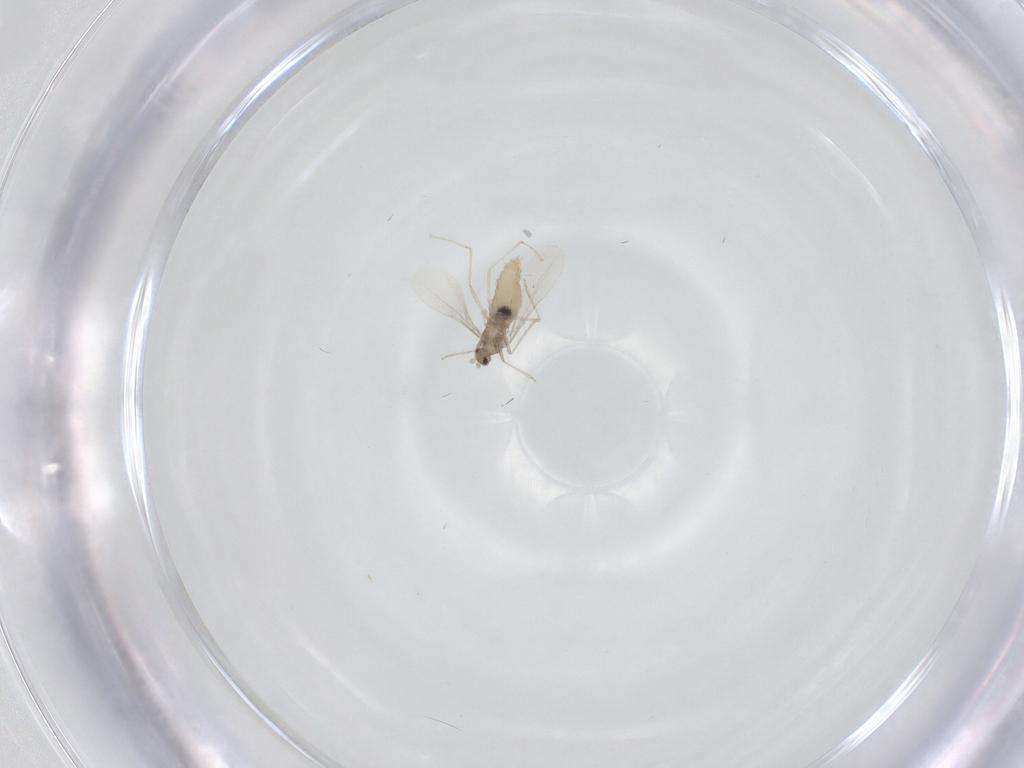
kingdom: Animalia
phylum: Arthropoda
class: Insecta
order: Diptera
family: Cecidomyiidae
